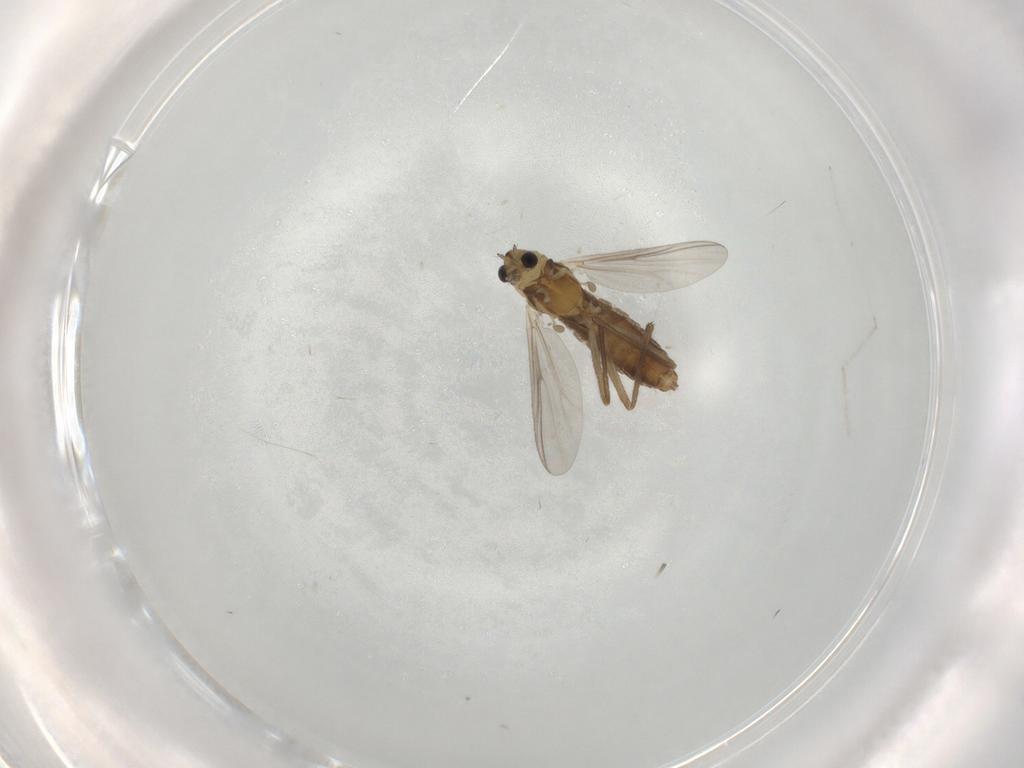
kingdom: Animalia
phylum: Arthropoda
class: Insecta
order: Diptera
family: Chironomidae
